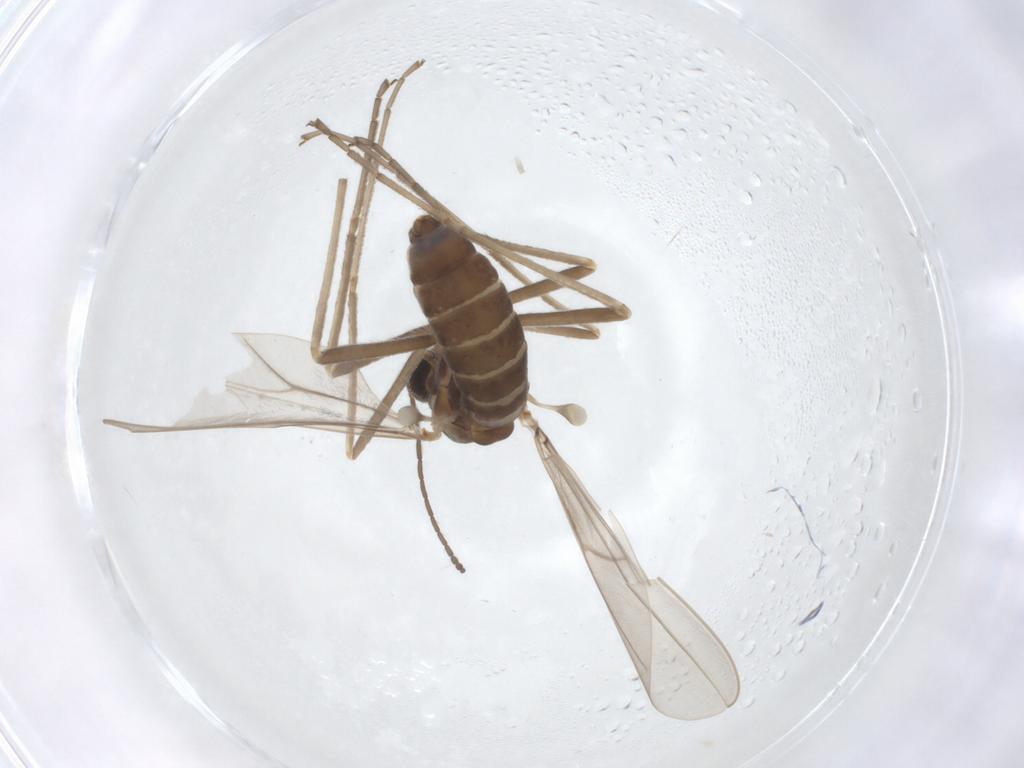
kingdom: Animalia
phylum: Arthropoda
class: Insecta
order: Diptera
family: Cecidomyiidae
